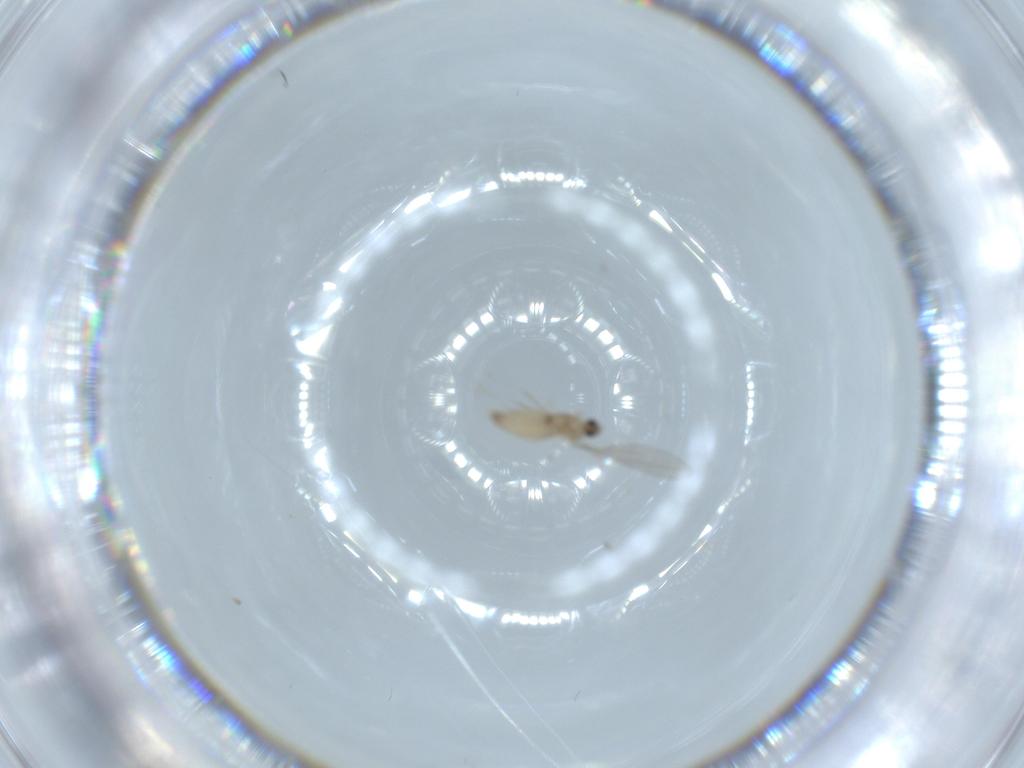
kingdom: Animalia
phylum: Arthropoda
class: Insecta
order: Diptera
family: Cecidomyiidae
